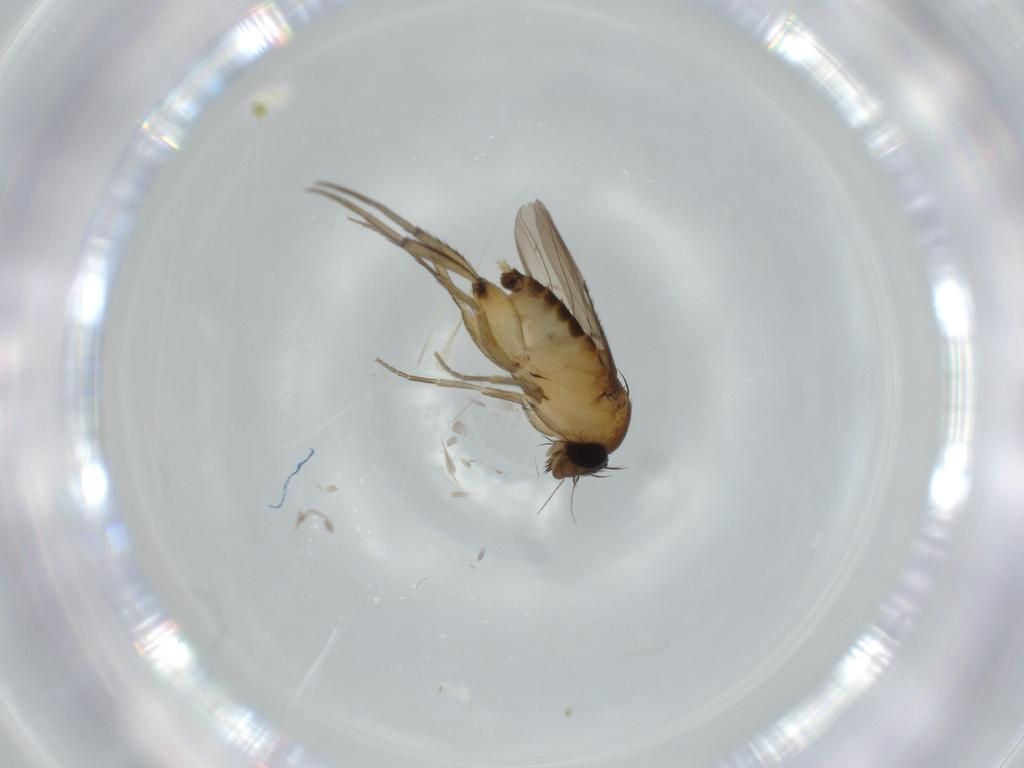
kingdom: Animalia
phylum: Arthropoda
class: Insecta
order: Diptera
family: Phoridae
